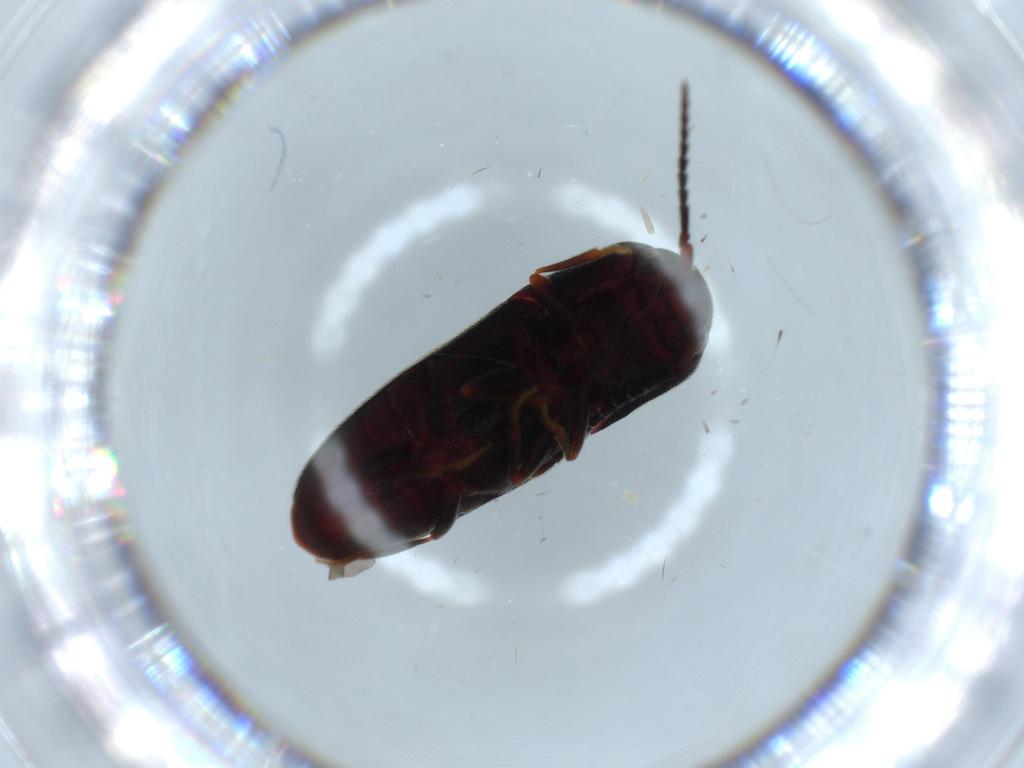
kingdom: Animalia
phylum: Arthropoda
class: Insecta
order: Coleoptera
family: Eucnemidae
